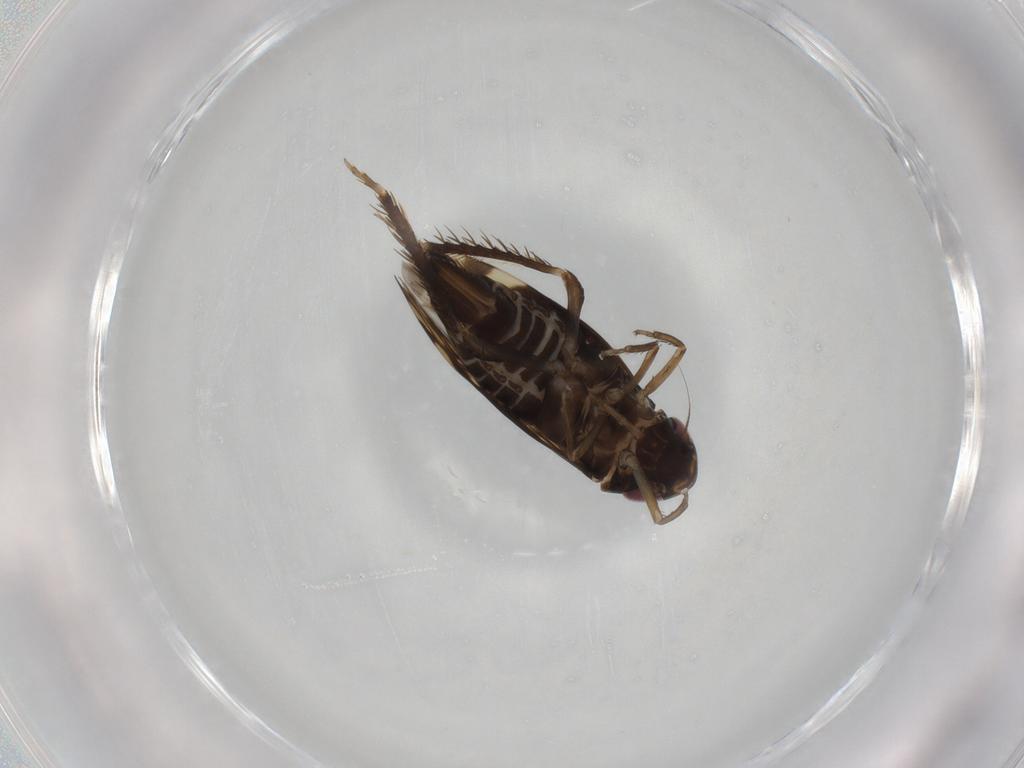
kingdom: Animalia
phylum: Arthropoda
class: Insecta
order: Hemiptera
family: Cicadellidae
